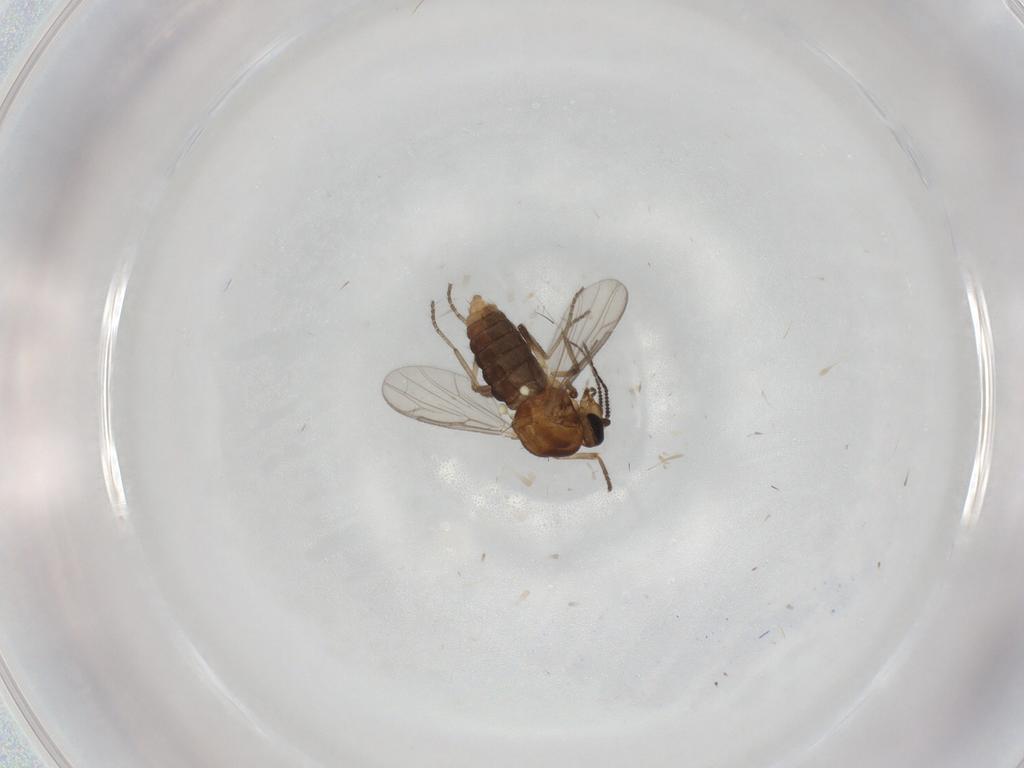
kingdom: Animalia
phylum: Arthropoda
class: Insecta
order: Diptera
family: Ceratopogonidae
